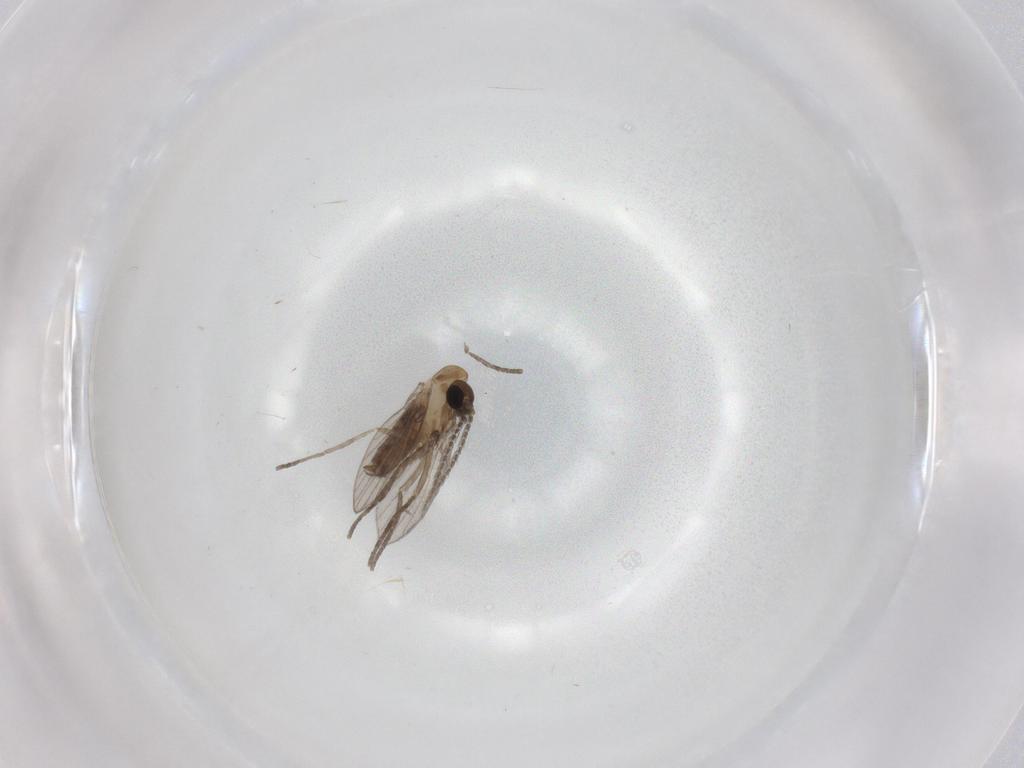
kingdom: Animalia
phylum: Arthropoda
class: Insecta
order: Diptera
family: Psychodidae
